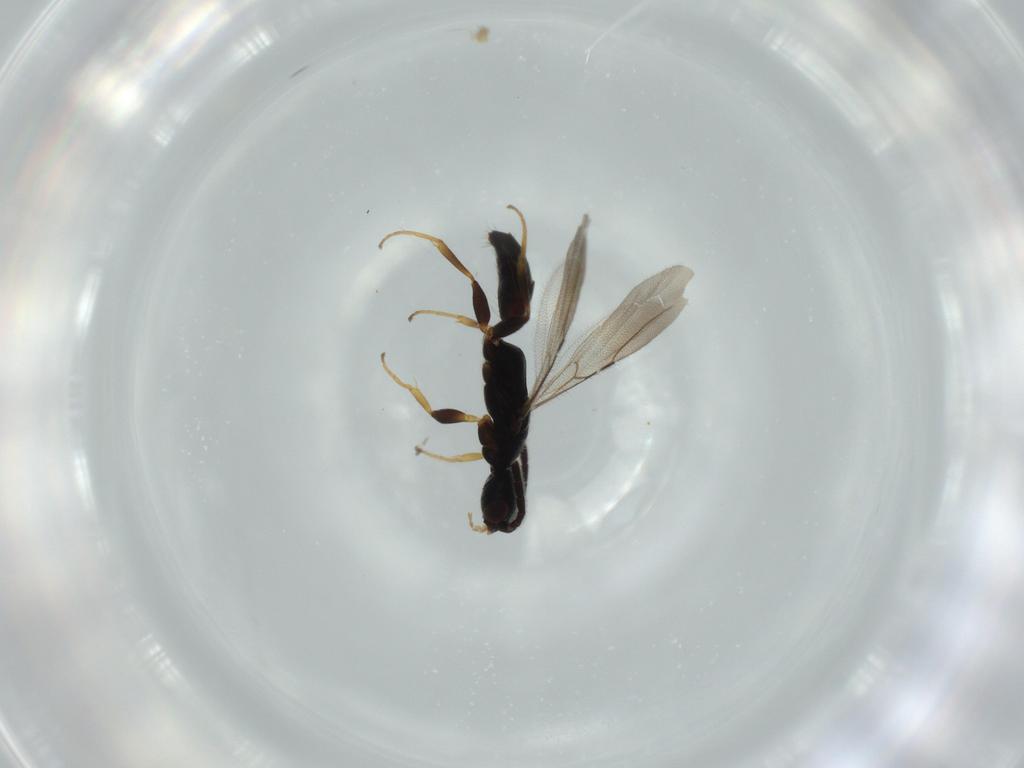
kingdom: Animalia
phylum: Arthropoda
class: Insecta
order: Hymenoptera
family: Bethylidae
